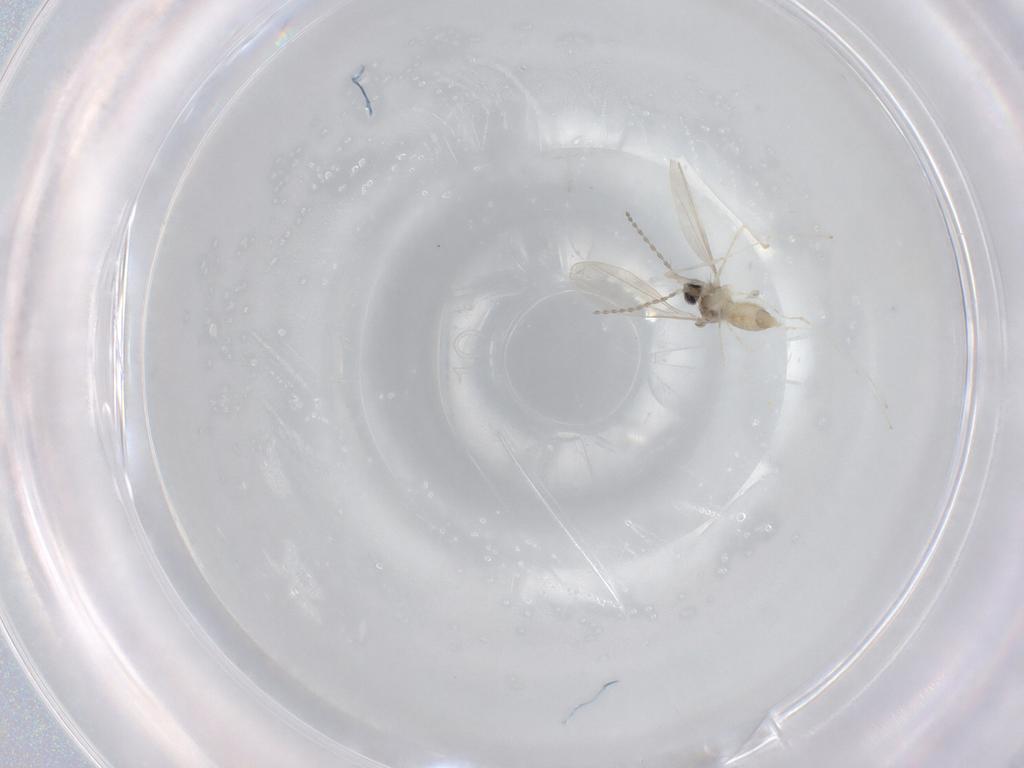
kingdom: Animalia
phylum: Arthropoda
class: Insecta
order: Diptera
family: Cecidomyiidae
